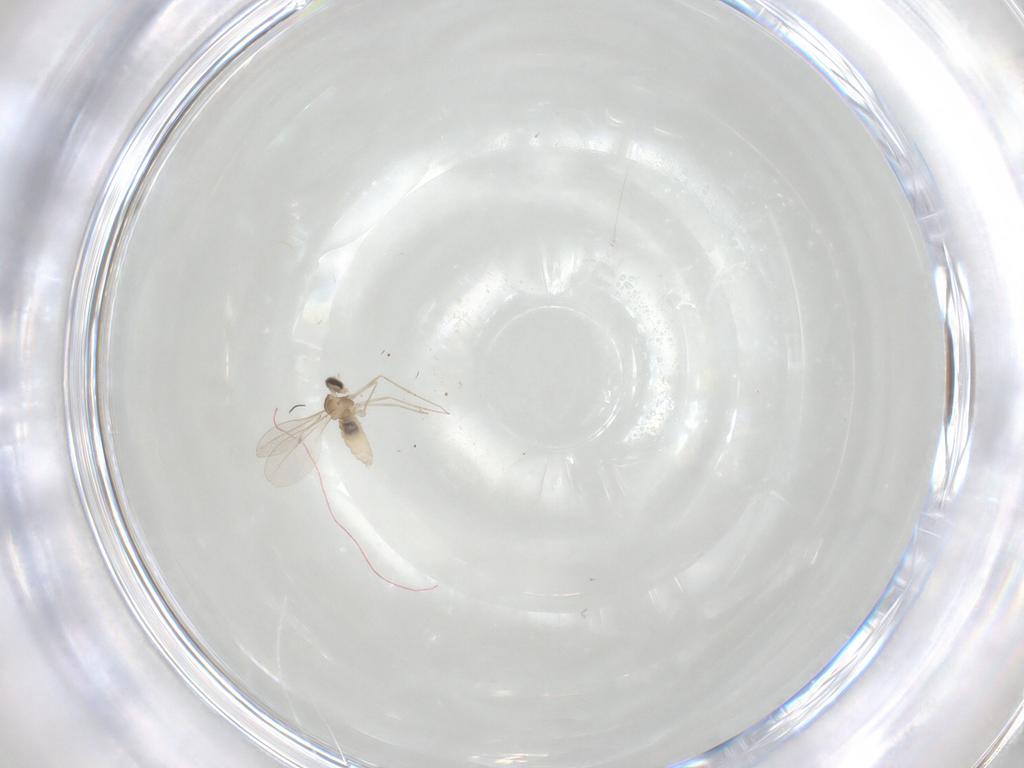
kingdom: Animalia
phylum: Arthropoda
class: Insecta
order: Diptera
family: Cecidomyiidae
